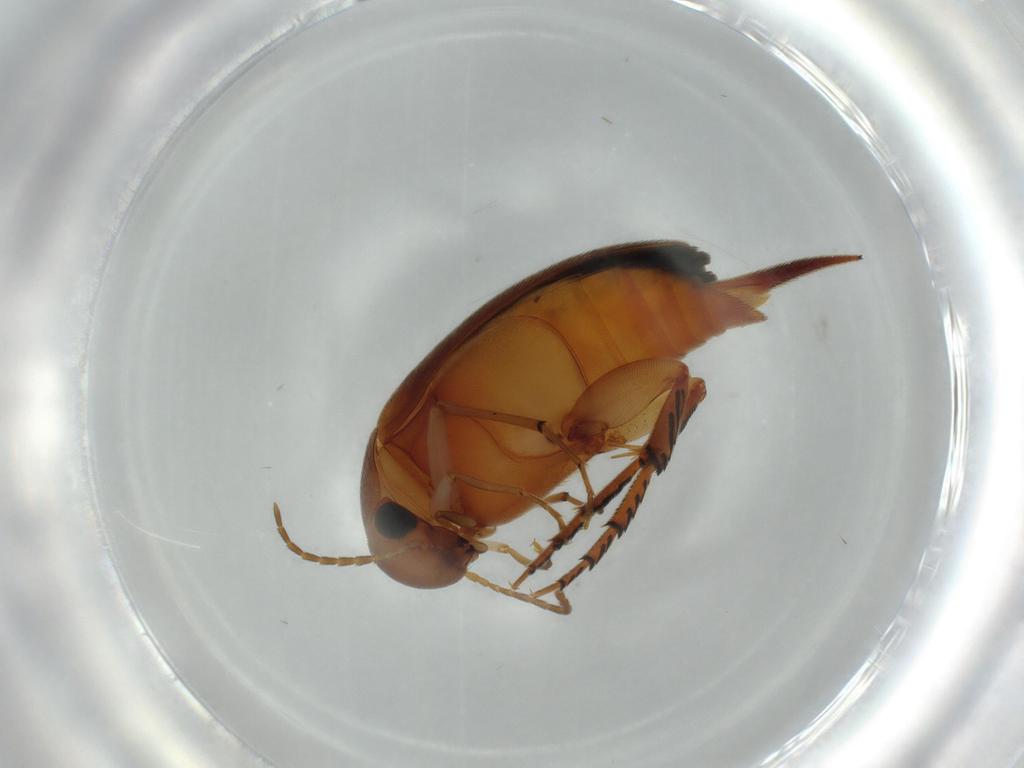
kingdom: Animalia
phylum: Arthropoda
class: Insecta
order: Coleoptera
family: Mordellidae
